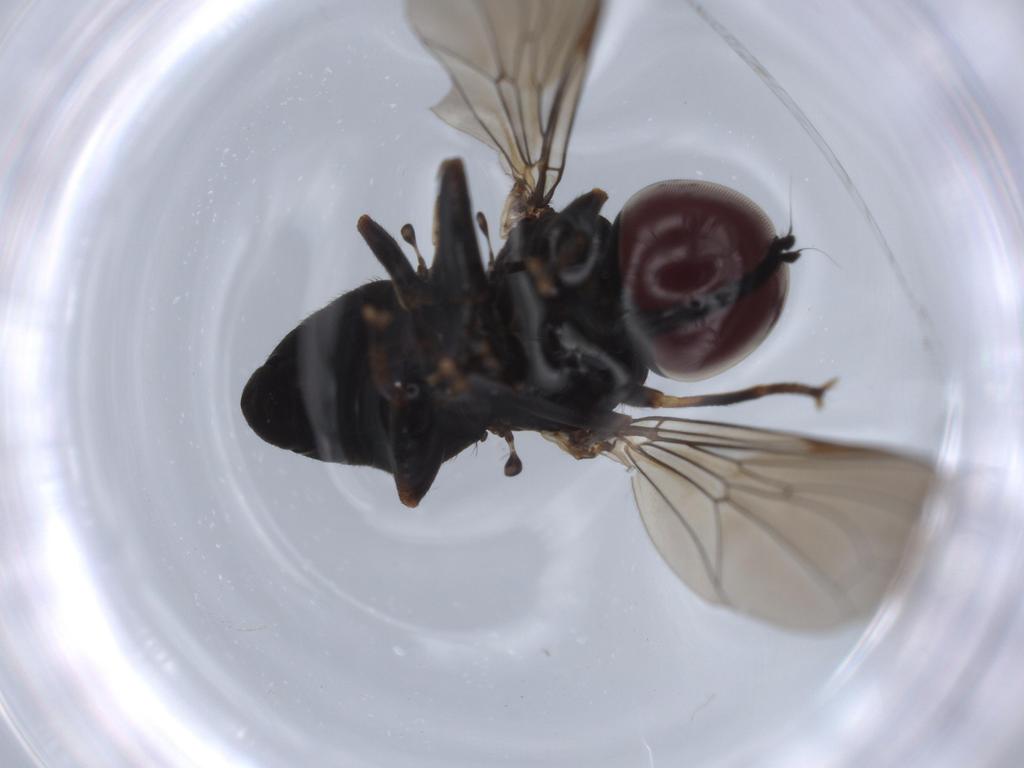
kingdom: Animalia
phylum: Arthropoda
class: Insecta
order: Diptera
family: Pipunculidae
